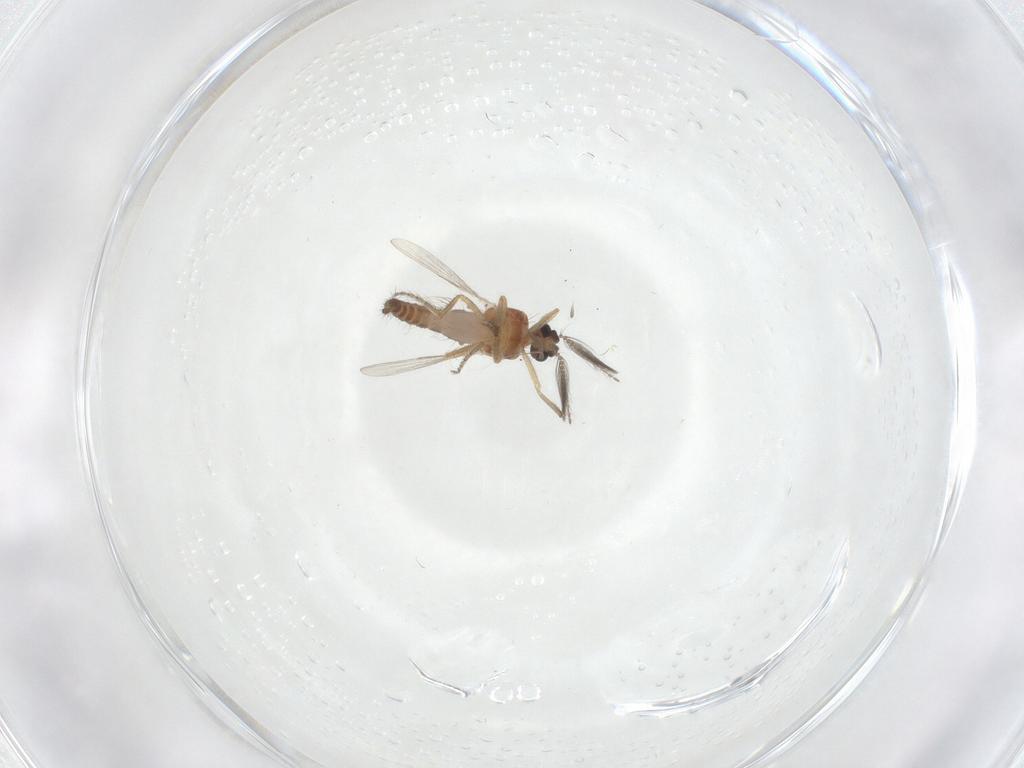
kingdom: Animalia
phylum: Arthropoda
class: Insecta
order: Diptera
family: Ceratopogonidae
